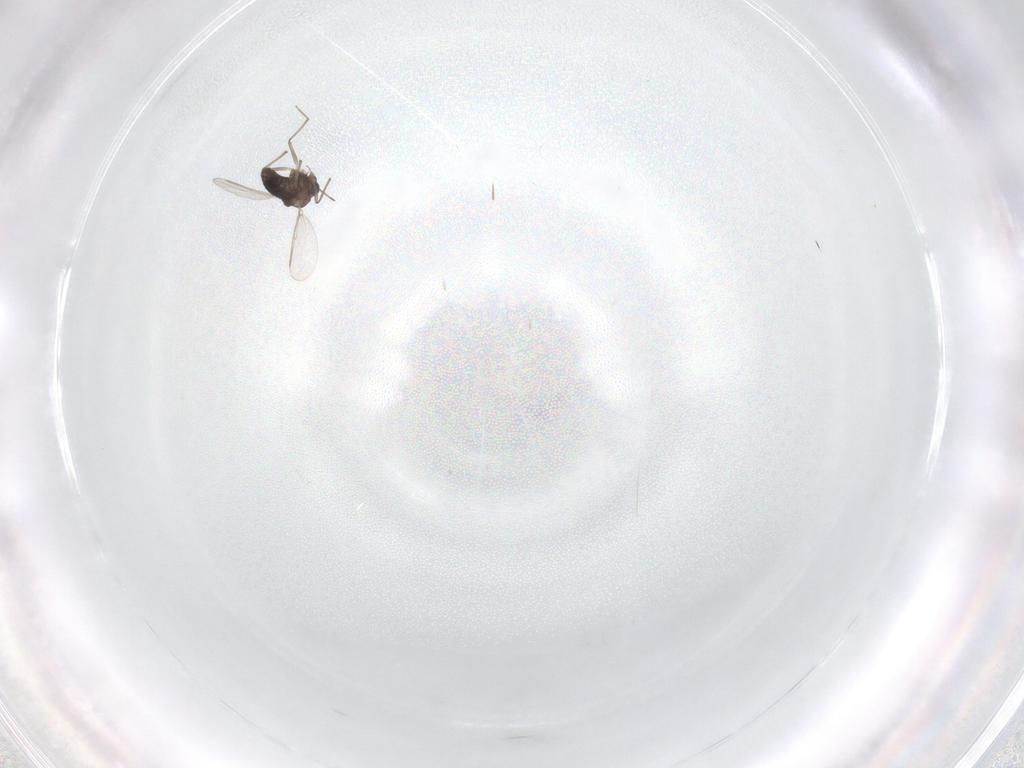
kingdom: Animalia
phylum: Arthropoda
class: Insecta
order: Diptera
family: Chironomidae
